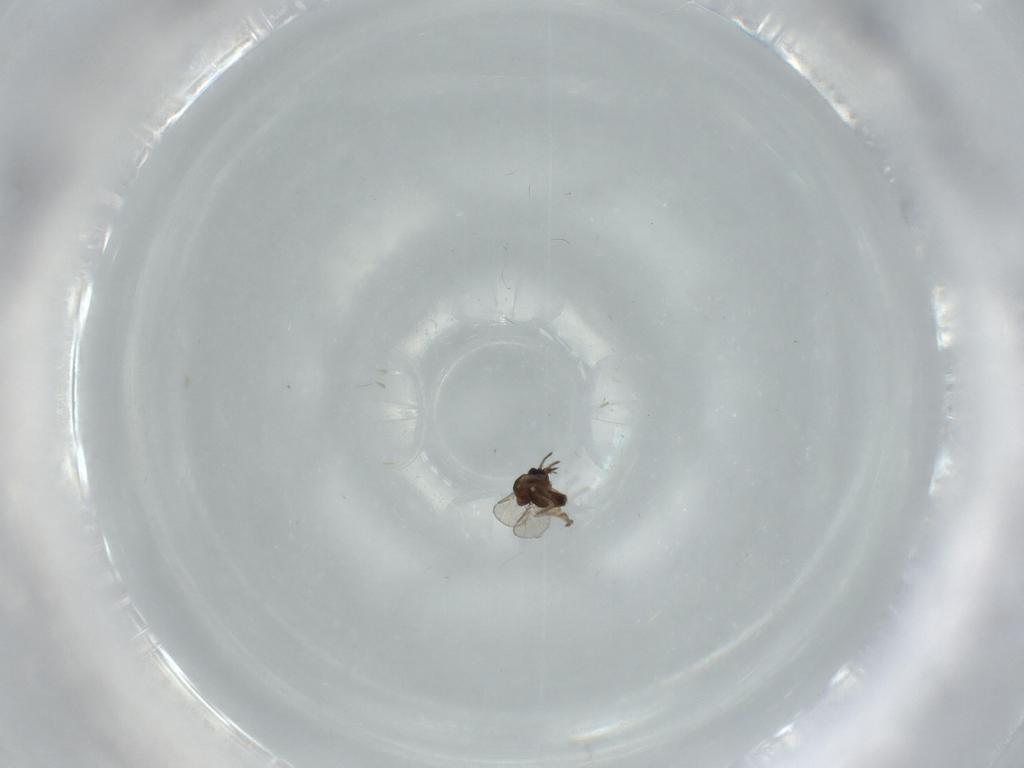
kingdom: Animalia
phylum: Arthropoda
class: Insecta
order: Diptera
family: Ceratopogonidae
